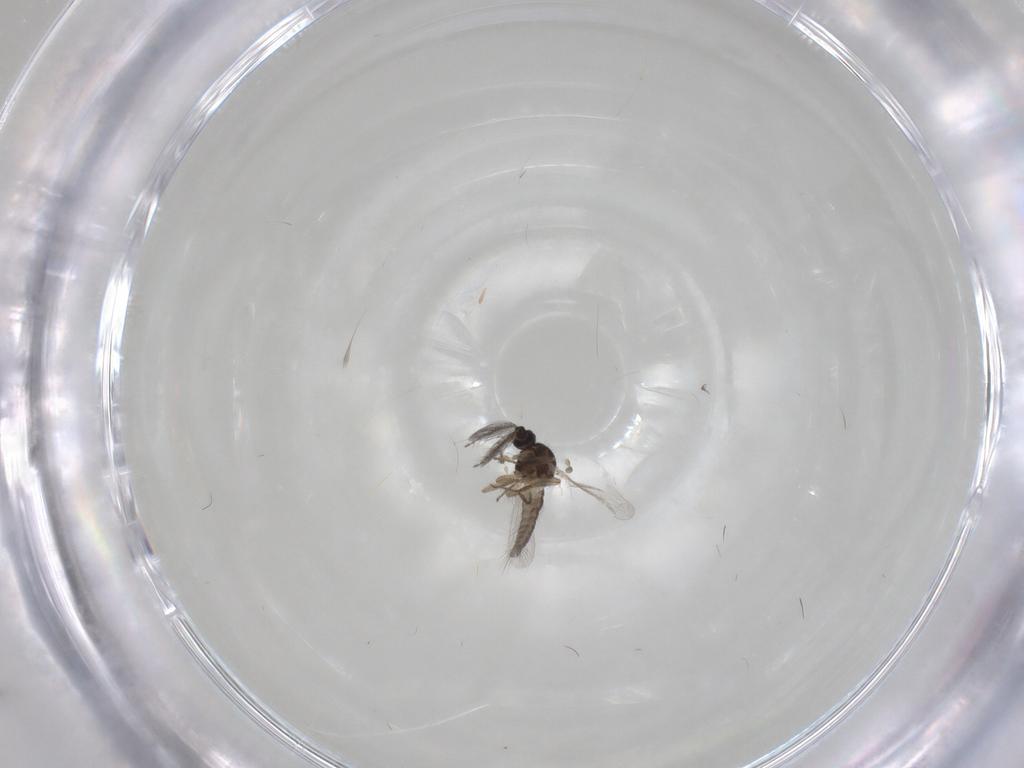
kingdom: Animalia
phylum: Arthropoda
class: Insecta
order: Diptera
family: Ceratopogonidae
